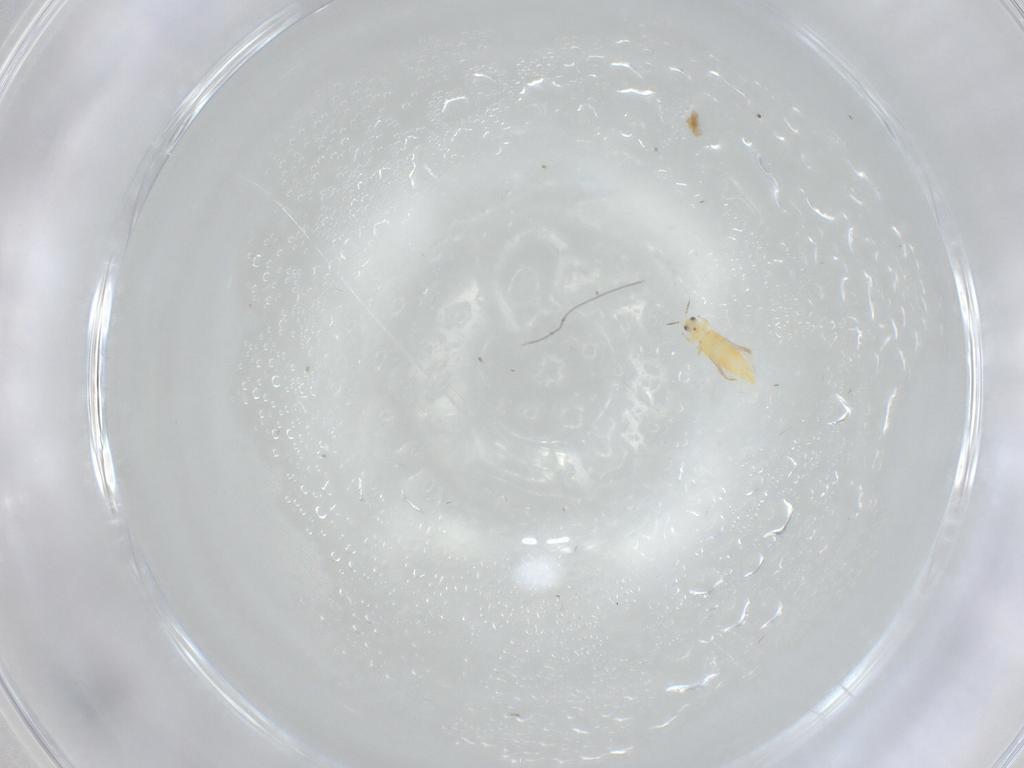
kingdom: Animalia
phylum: Arthropoda
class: Insecta
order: Thysanoptera
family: Thripidae
